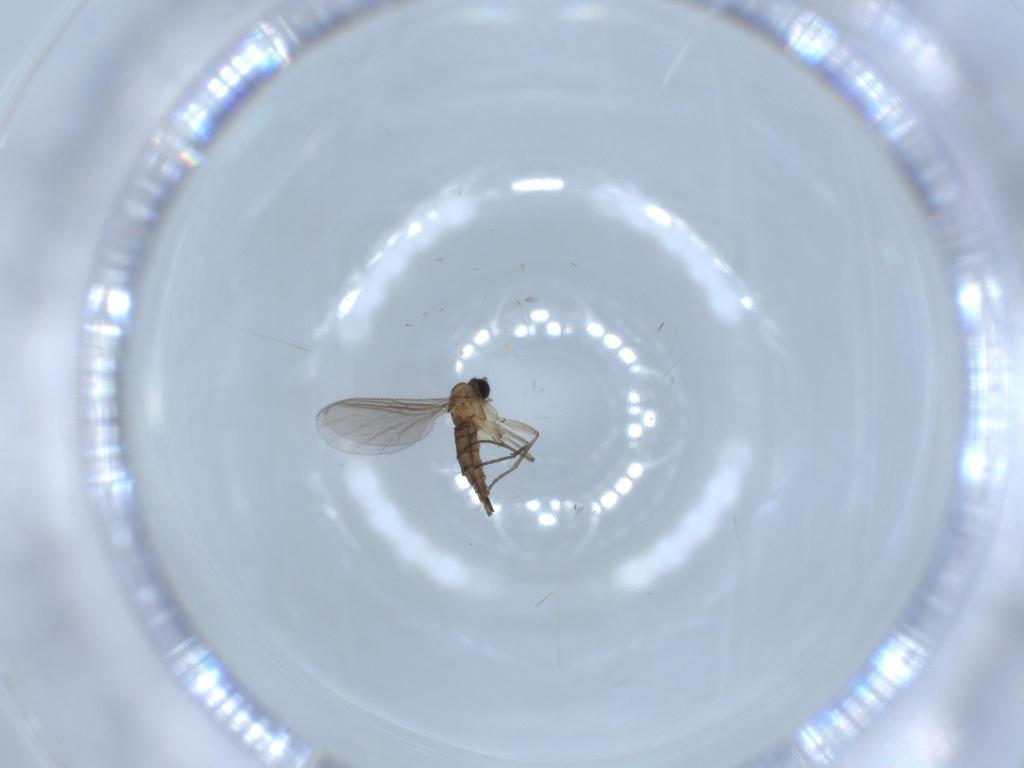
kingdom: Animalia
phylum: Arthropoda
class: Insecta
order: Diptera
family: Sciaridae
